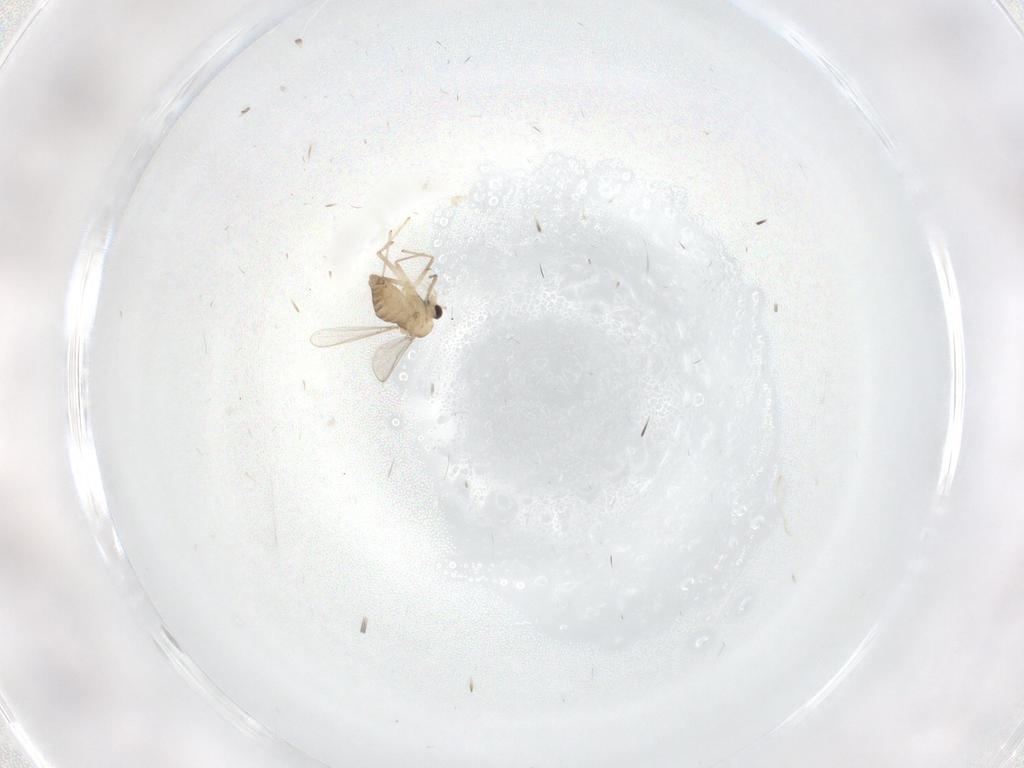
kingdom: Animalia
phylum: Arthropoda
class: Insecta
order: Diptera
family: Chironomidae
